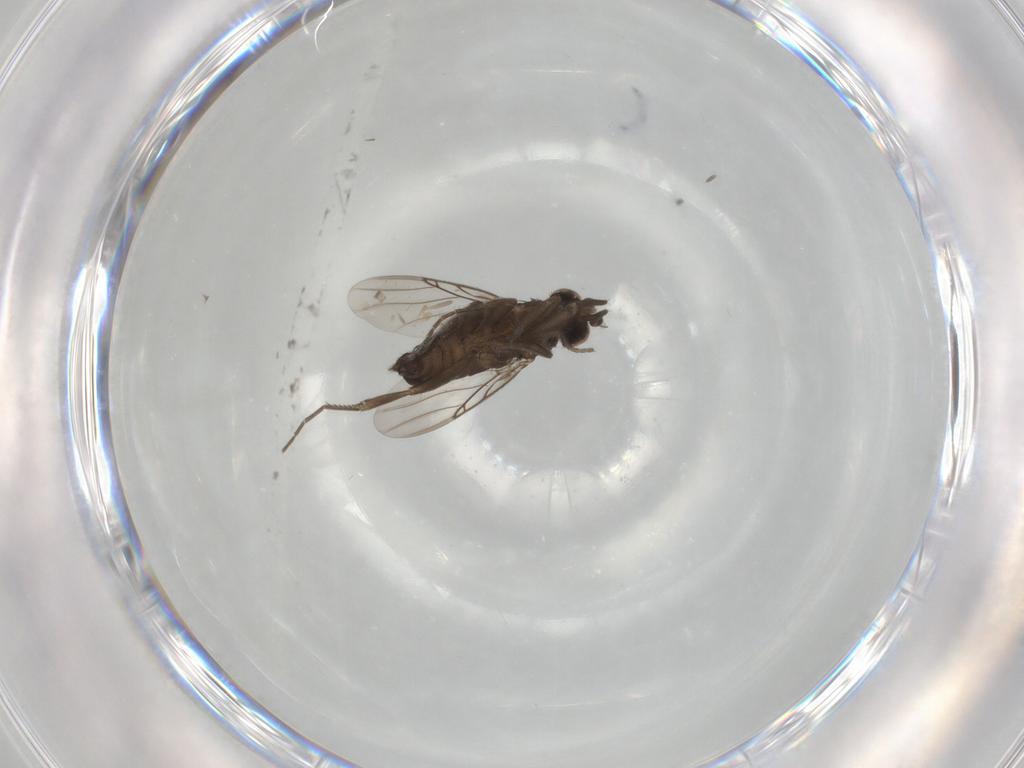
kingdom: Animalia
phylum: Arthropoda
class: Insecta
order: Diptera
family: Phoridae
